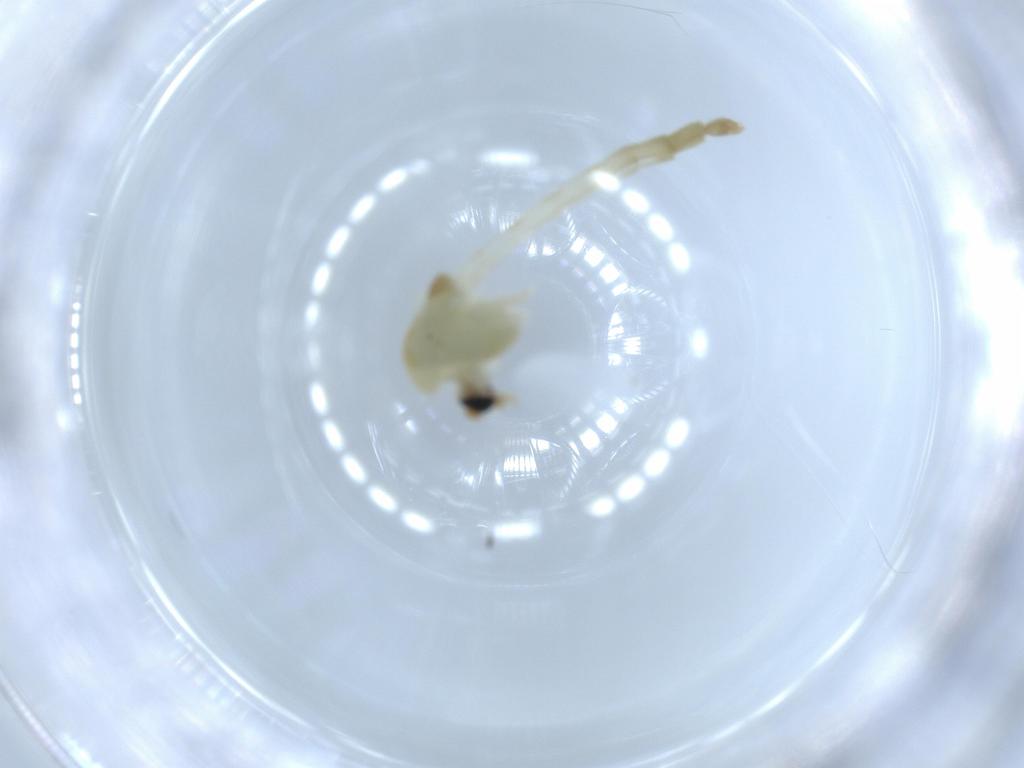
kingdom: Animalia
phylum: Arthropoda
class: Insecta
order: Diptera
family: Chironomidae
